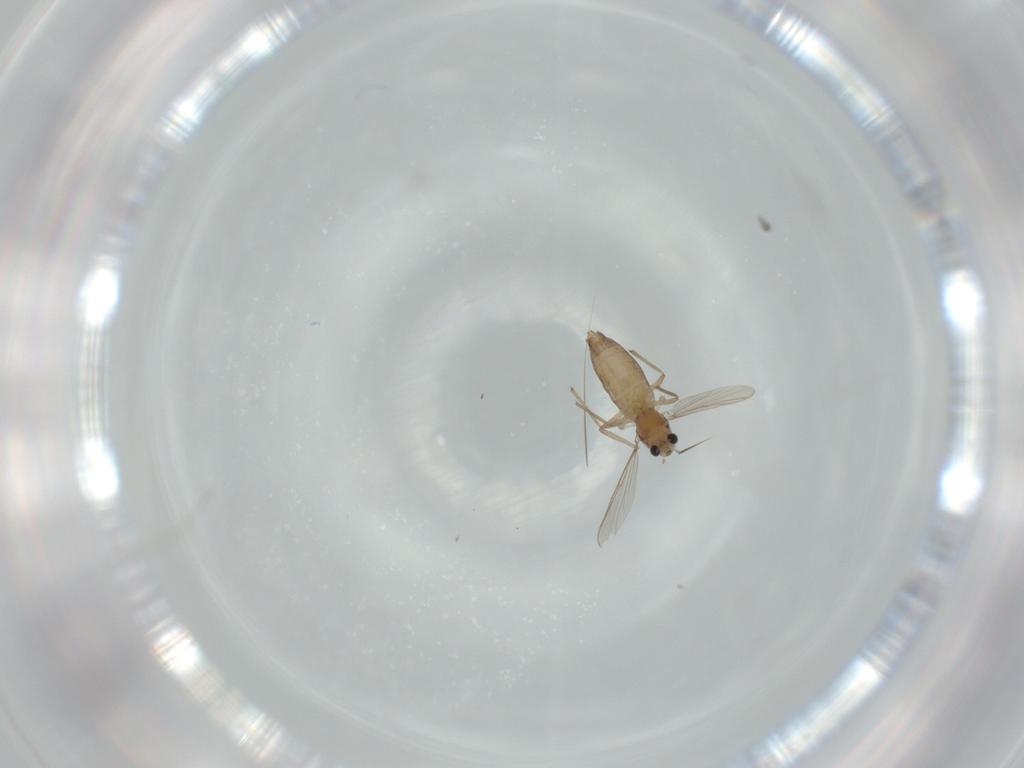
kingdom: Animalia
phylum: Arthropoda
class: Insecta
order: Diptera
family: Chironomidae
